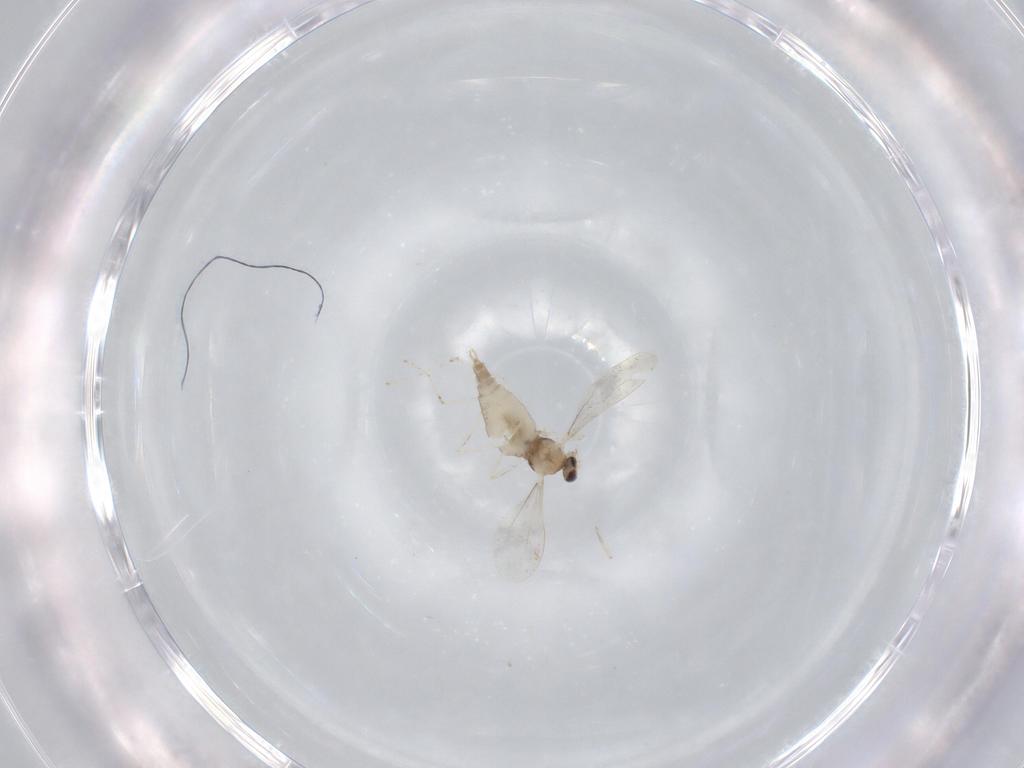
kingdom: Animalia
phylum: Arthropoda
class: Insecta
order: Diptera
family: Cecidomyiidae
